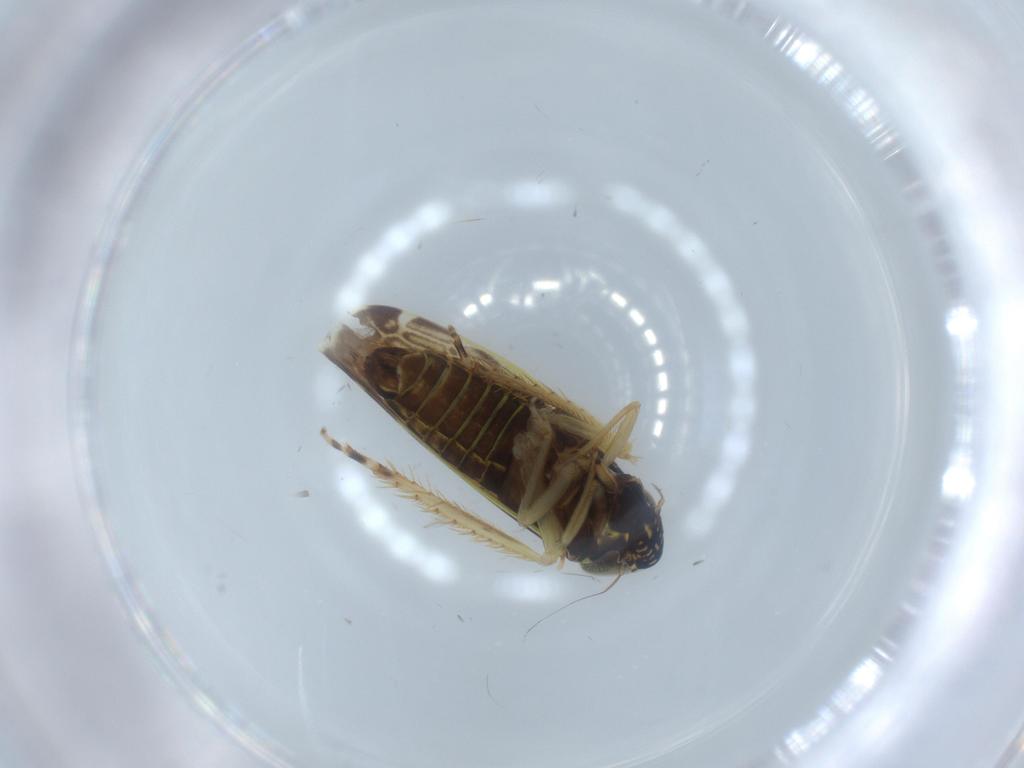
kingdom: Animalia
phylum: Arthropoda
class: Insecta
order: Hemiptera
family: Cicadellidae
